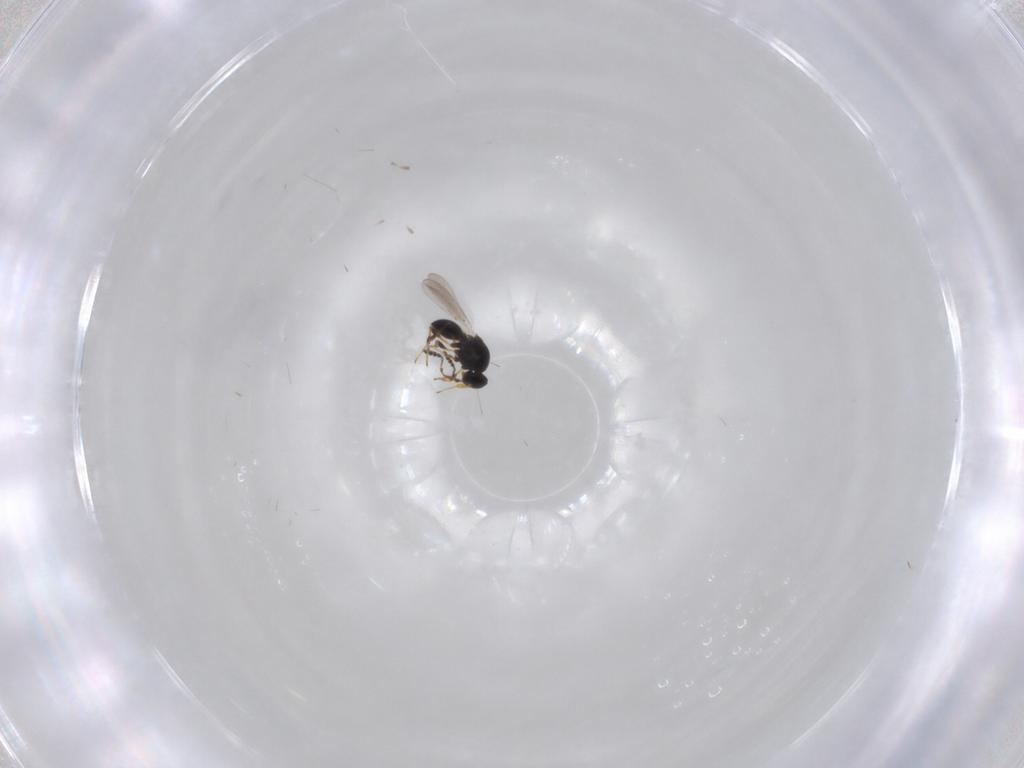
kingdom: Animalia
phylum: Arthropoda
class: Insecta
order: Hymenoptera
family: Platygastridae
